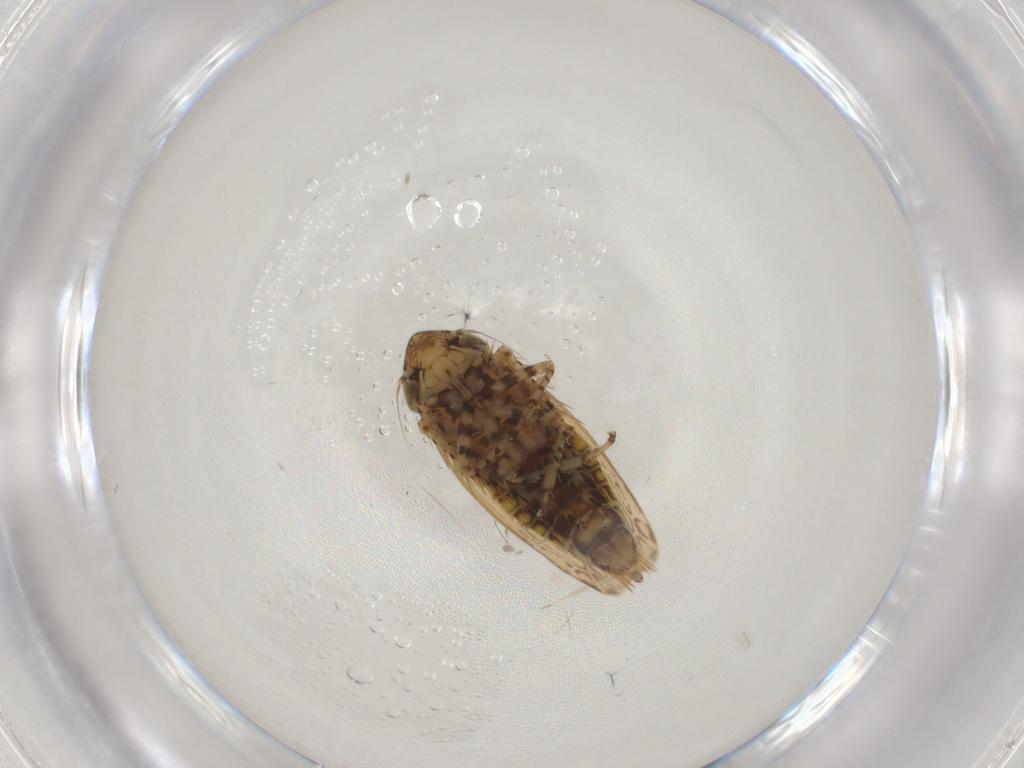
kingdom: Animalia
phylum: Arthropoda
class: Insecta
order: Hemiptera
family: Cicadellidae
